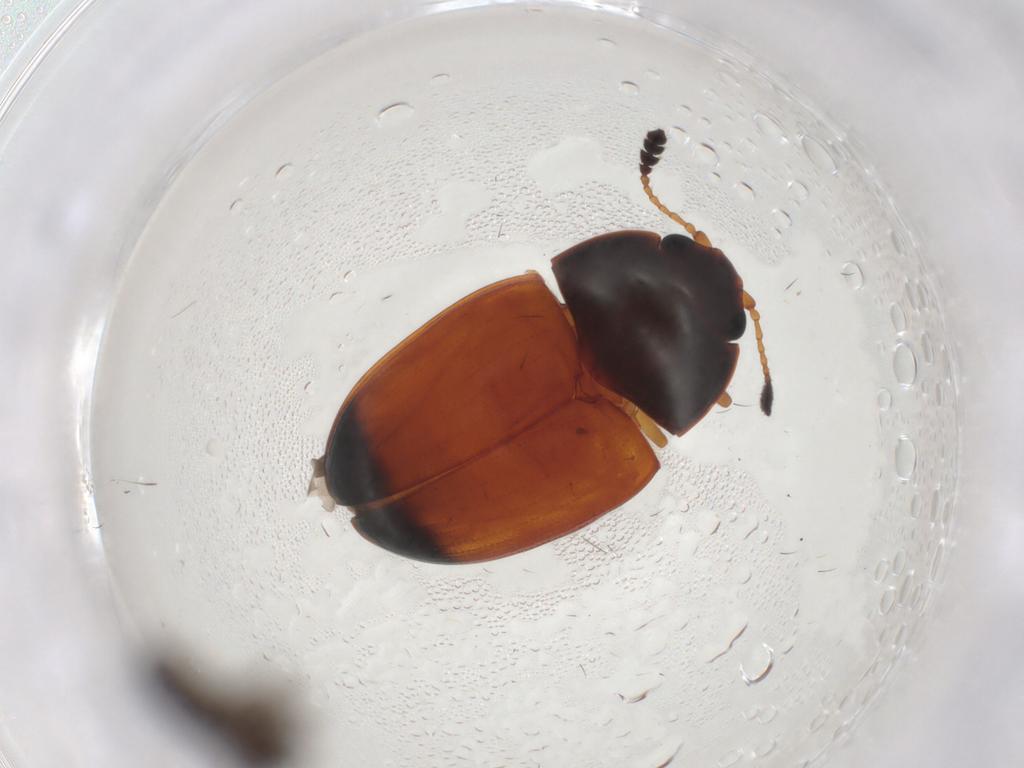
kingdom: Animalia
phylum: Arthropoda
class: Insecta
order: Coleoptera
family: Erotylidae
